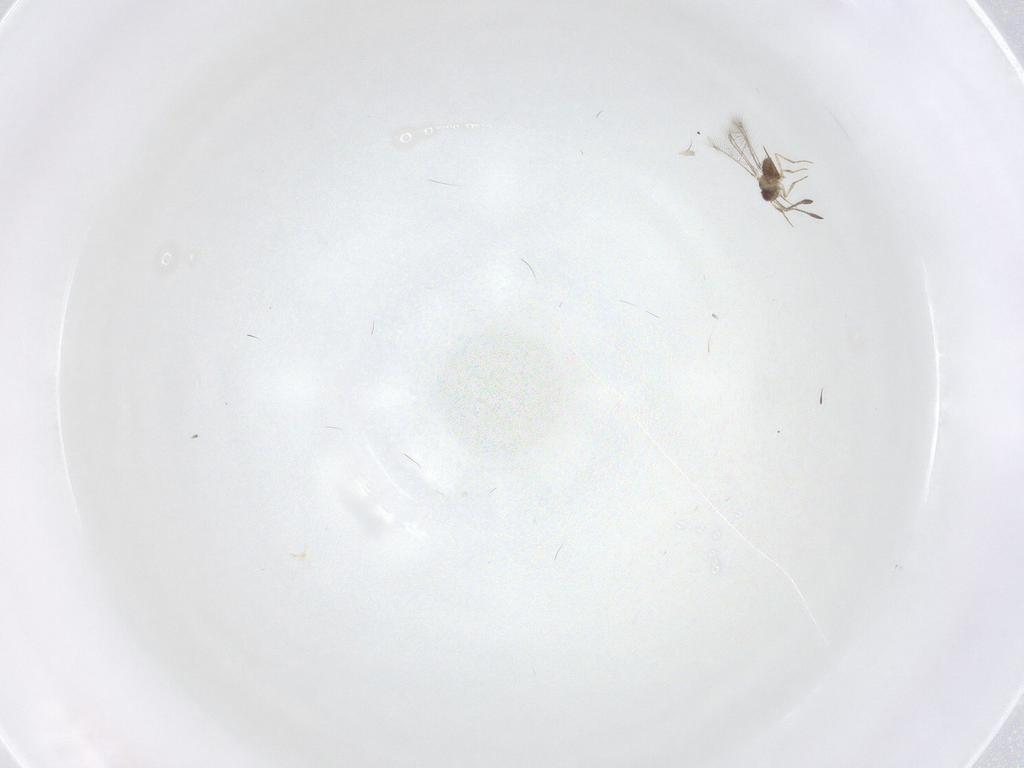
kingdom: Animalia
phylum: Arthropoda
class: Insecta
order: Hymenoptera
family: Mymaridae
